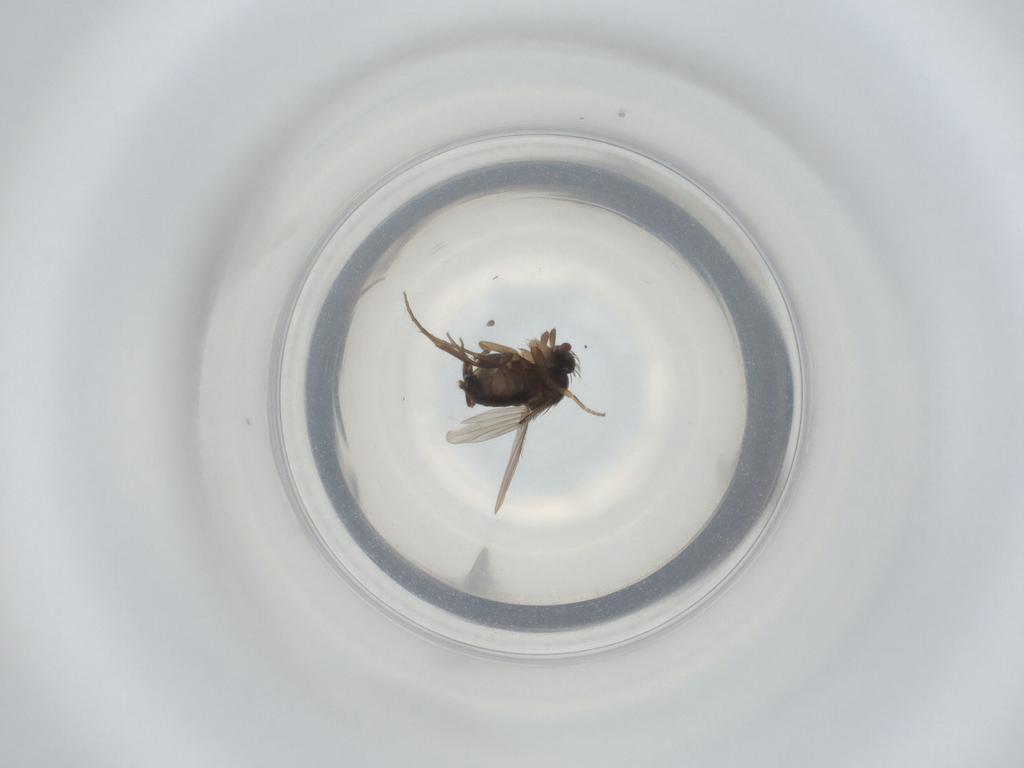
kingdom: Animalia
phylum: Arthropoda
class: Insecta
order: Diptera
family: Phoridae
